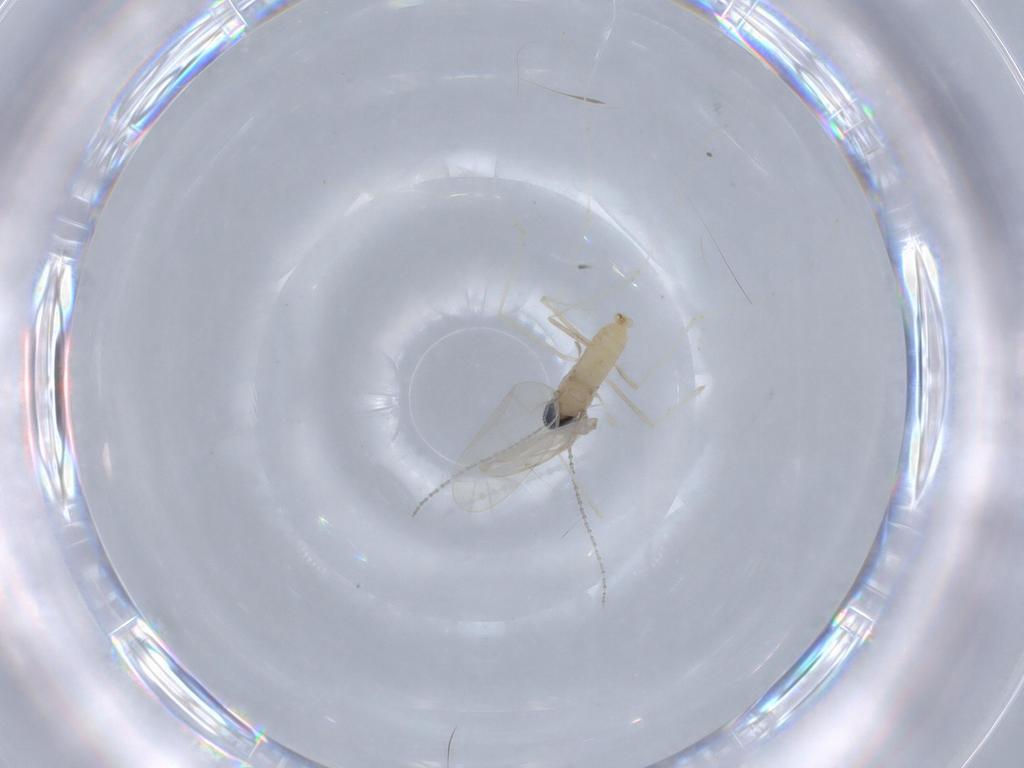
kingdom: Animalia
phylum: Arthropoda
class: Insecta
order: Diptera
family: Cecidomyiidae
